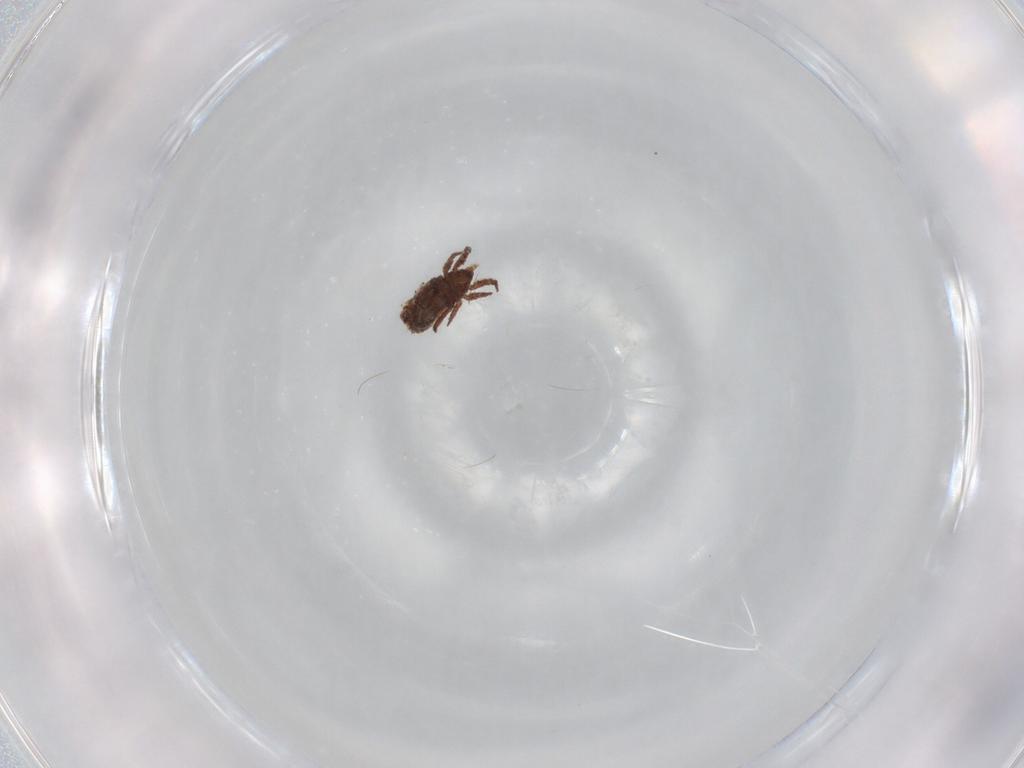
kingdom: Animalia
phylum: Arthropoda
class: Arachnida
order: Sarcoptiformes
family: Crotoniidae
